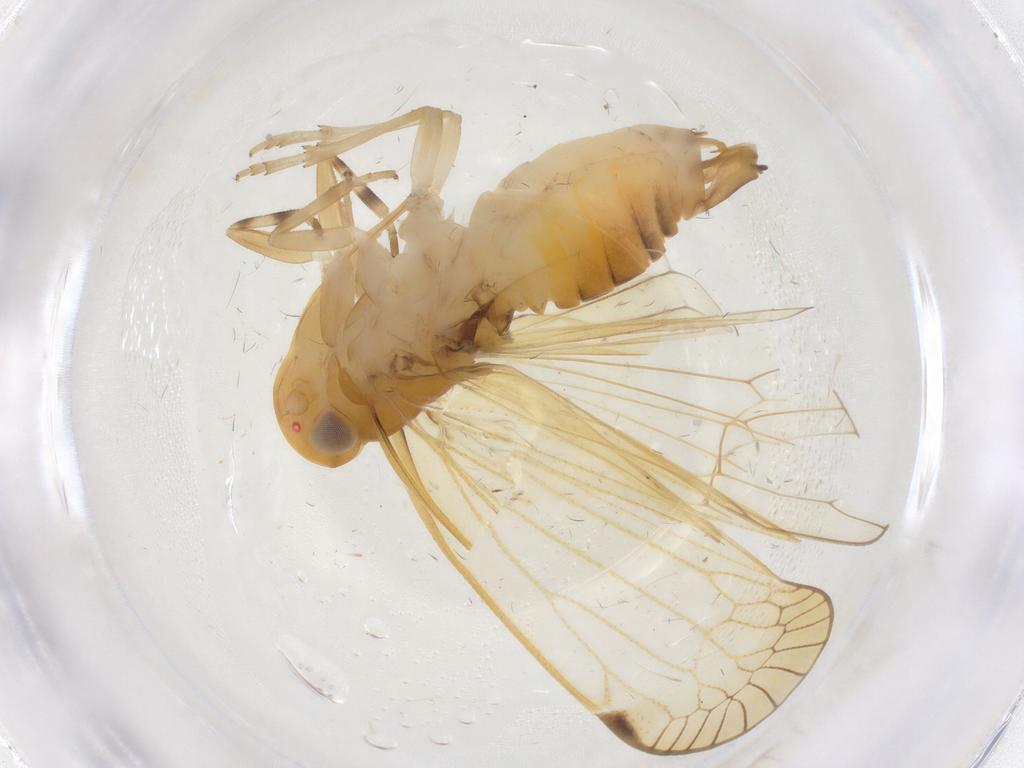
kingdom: Animalia
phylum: Arthropoda
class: Insecta
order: Hemiptera
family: Cixiidae
